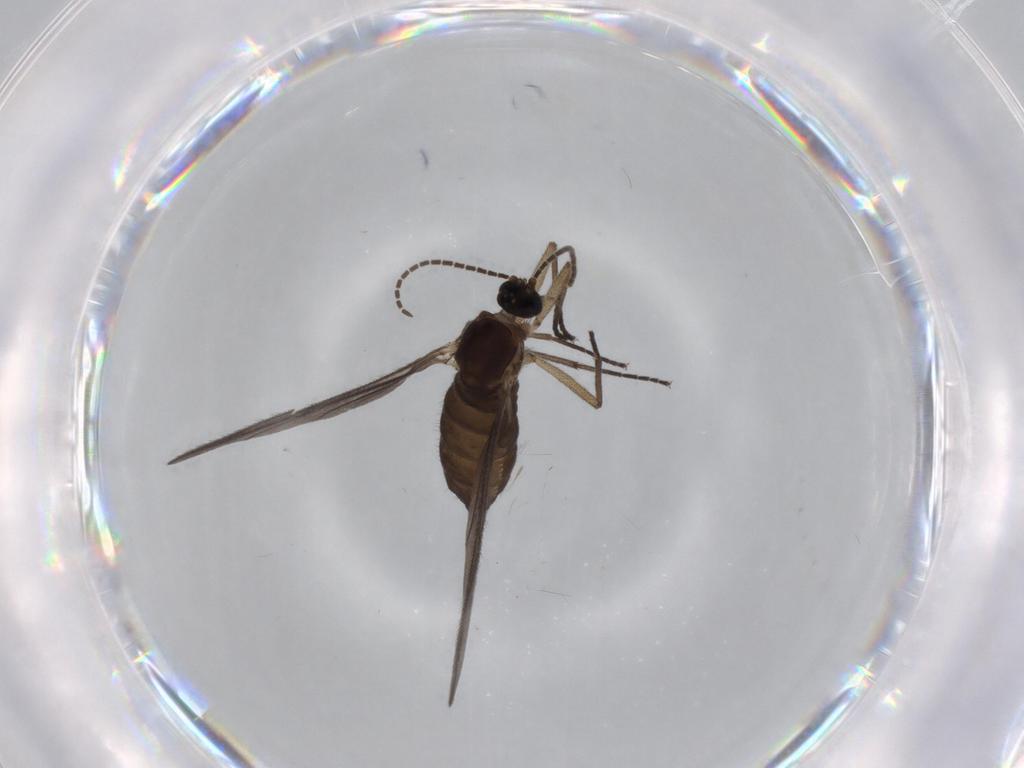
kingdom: Animalia
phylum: Arthropoda
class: Insecta
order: Diptera
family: Sciaridae
